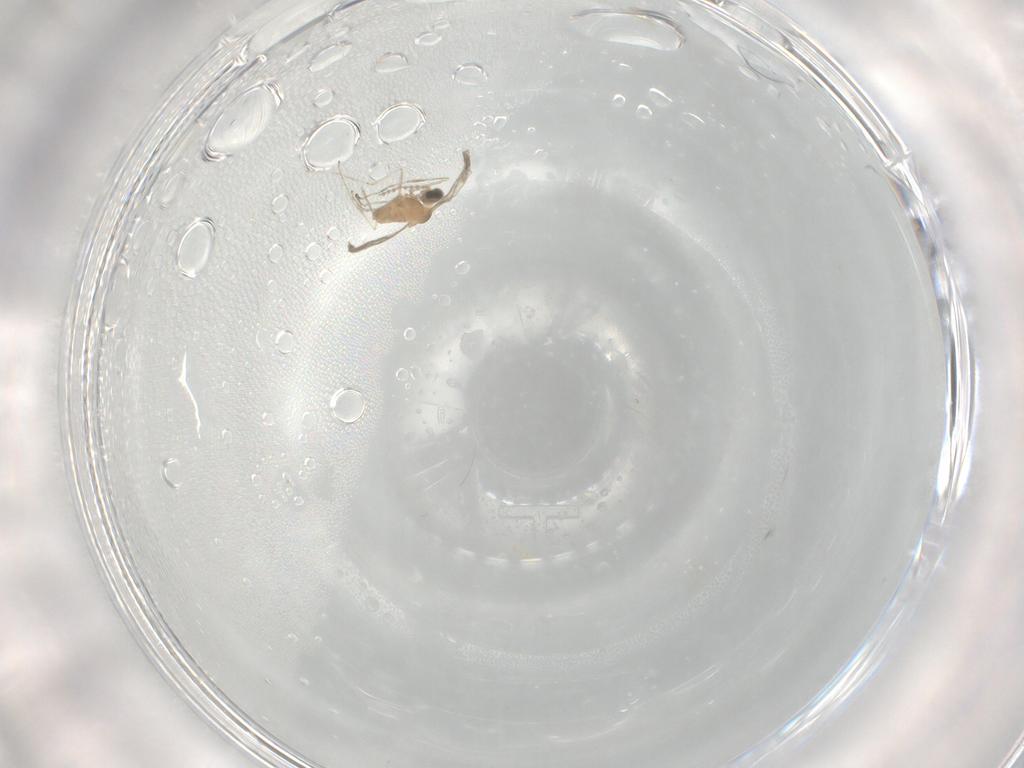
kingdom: Animalia
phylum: Arthropoda
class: Insecta
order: Diptera
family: Cecidomyiidae
